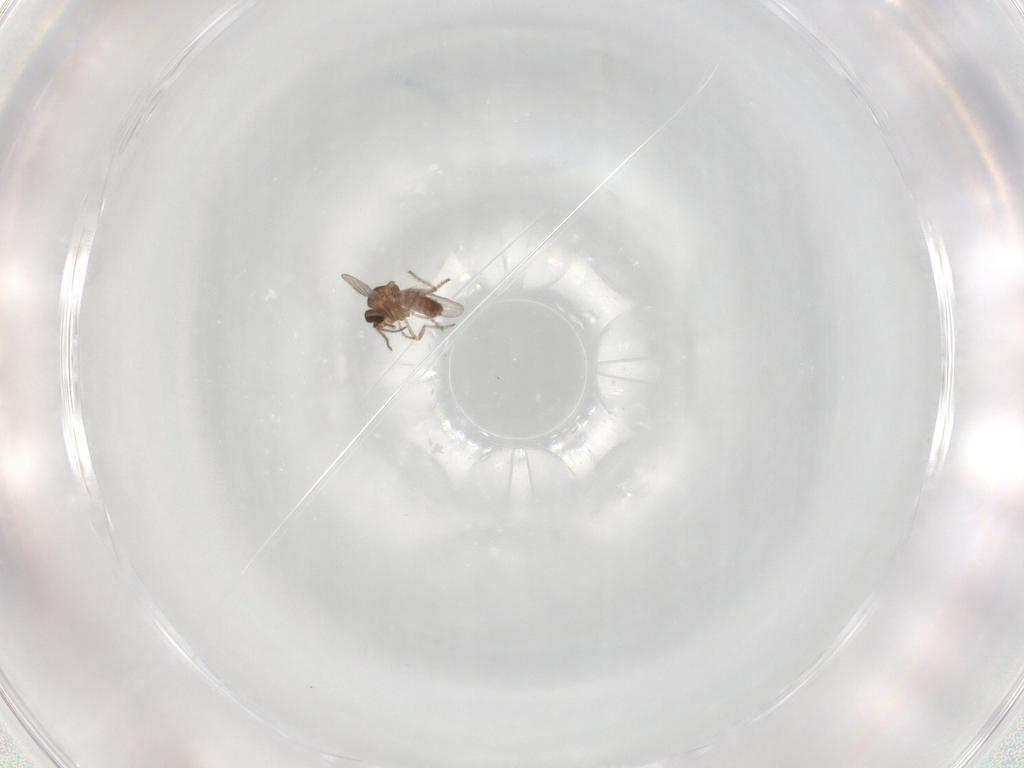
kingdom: Animalia
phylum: Arthropoda
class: Insecta
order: Diptera
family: Ceratopogonidae
